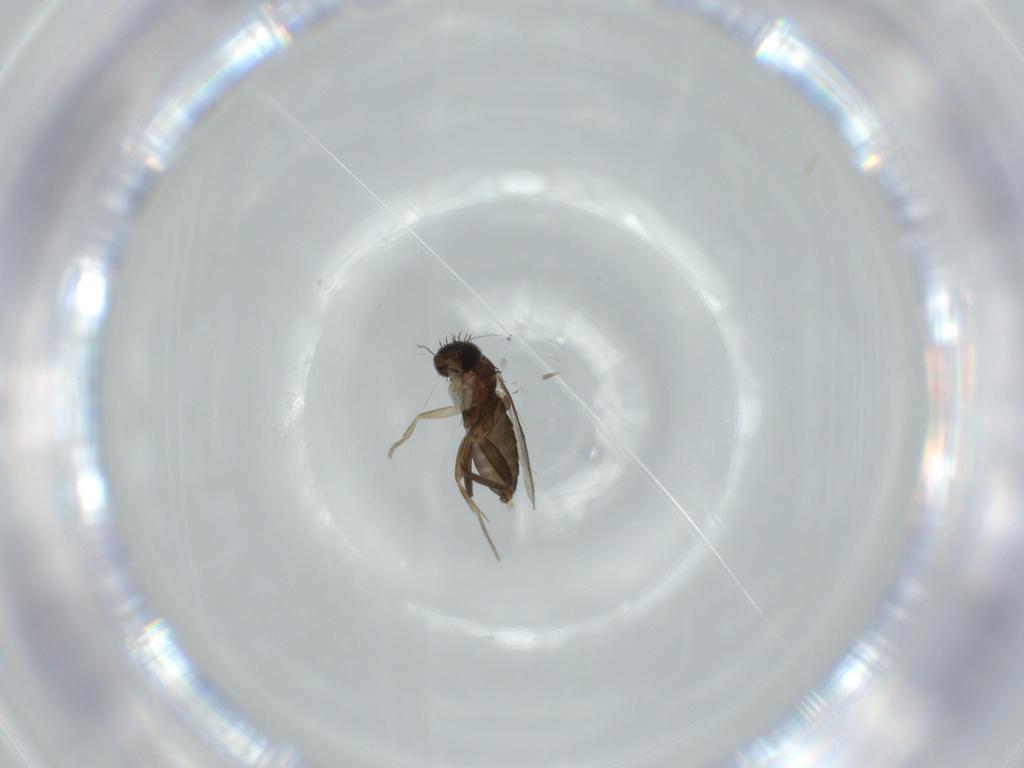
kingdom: Animalia
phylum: Arthropoda
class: Insecta
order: Diptera
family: Phoridae
